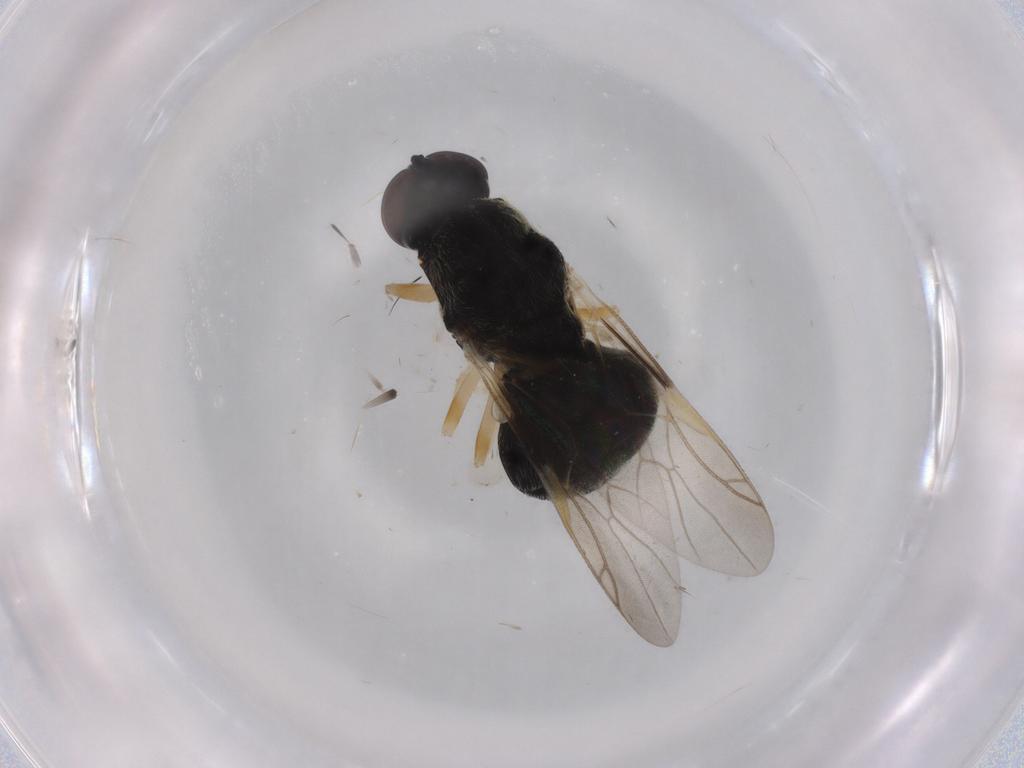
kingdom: Animalia
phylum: Arthropoda
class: Insecta
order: Diptera
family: Stratiomyidae
